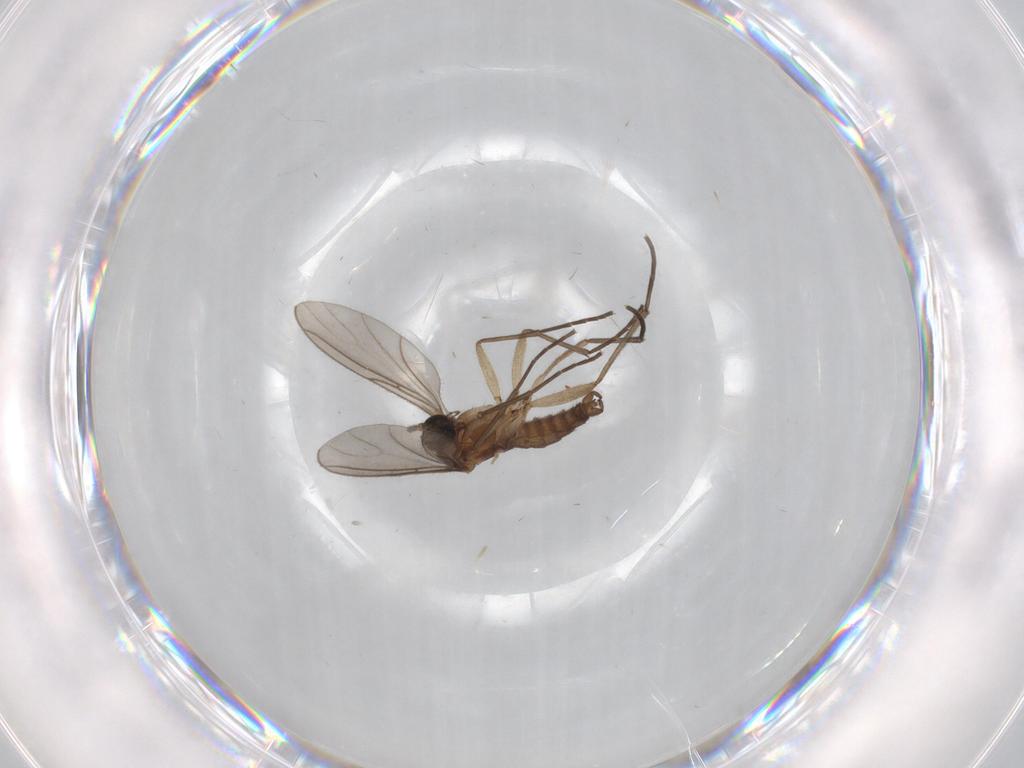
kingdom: Animalia
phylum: Arthropoda
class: Insecta
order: Diptera
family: Sciaridae
